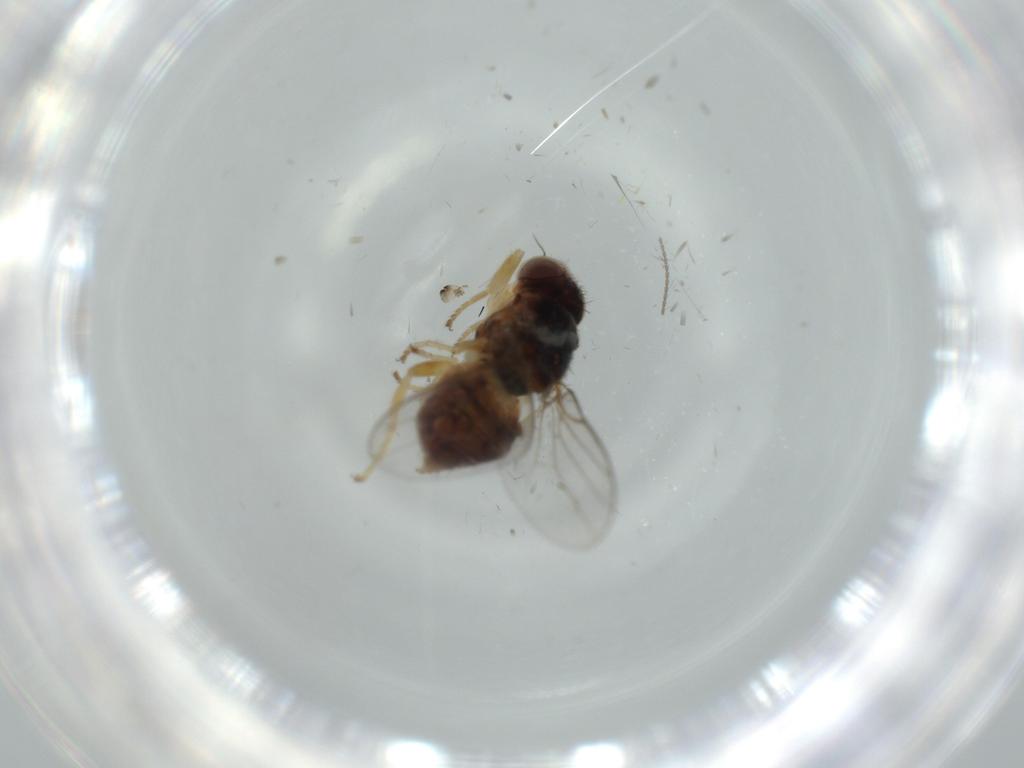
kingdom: Animalia
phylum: Arthropoda
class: Insecta
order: Diptera
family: Chloropidae
